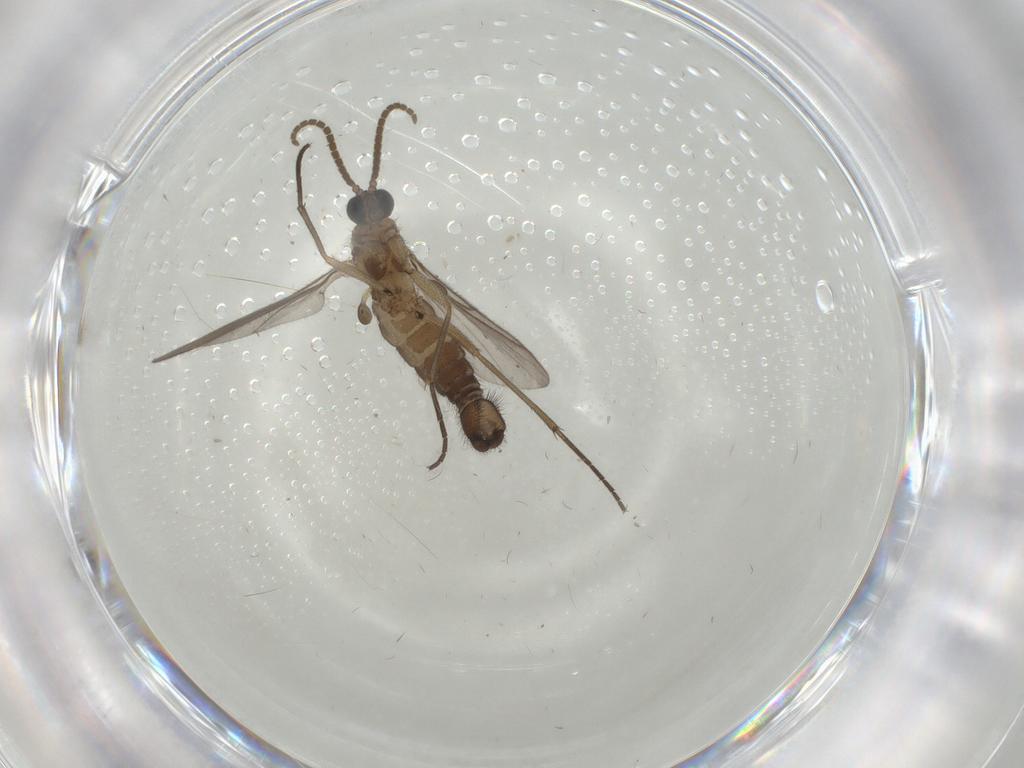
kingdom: Animalia
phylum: Arthropoda
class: Insecta
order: Diptera
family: Sciaridae
